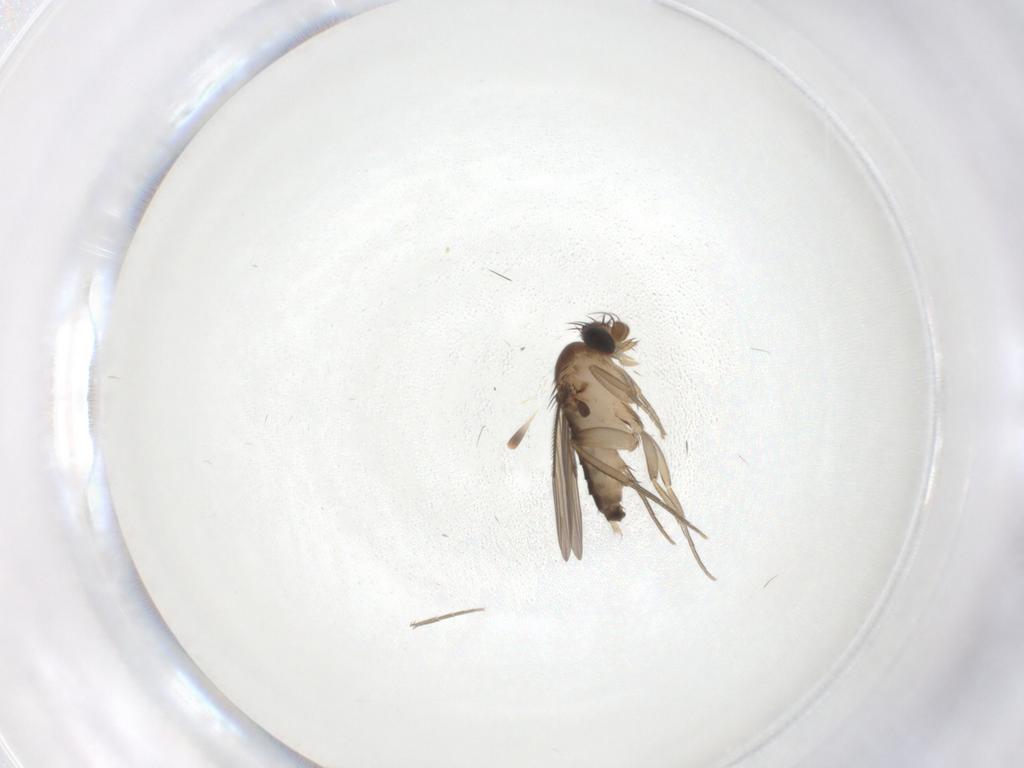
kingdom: Animalia
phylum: Arthropoda
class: Insecta
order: Diptera
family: Phoridae
